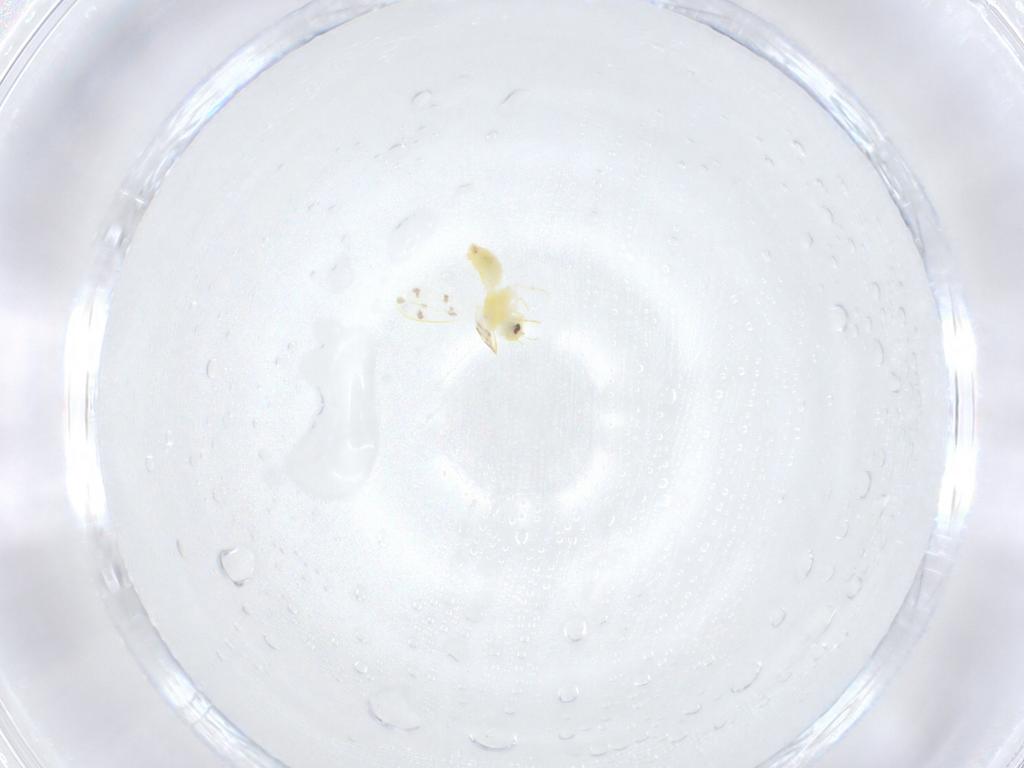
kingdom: Animalia
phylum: Arthropoda
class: Insecta
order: Hemiptera
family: Aleyrodidae
